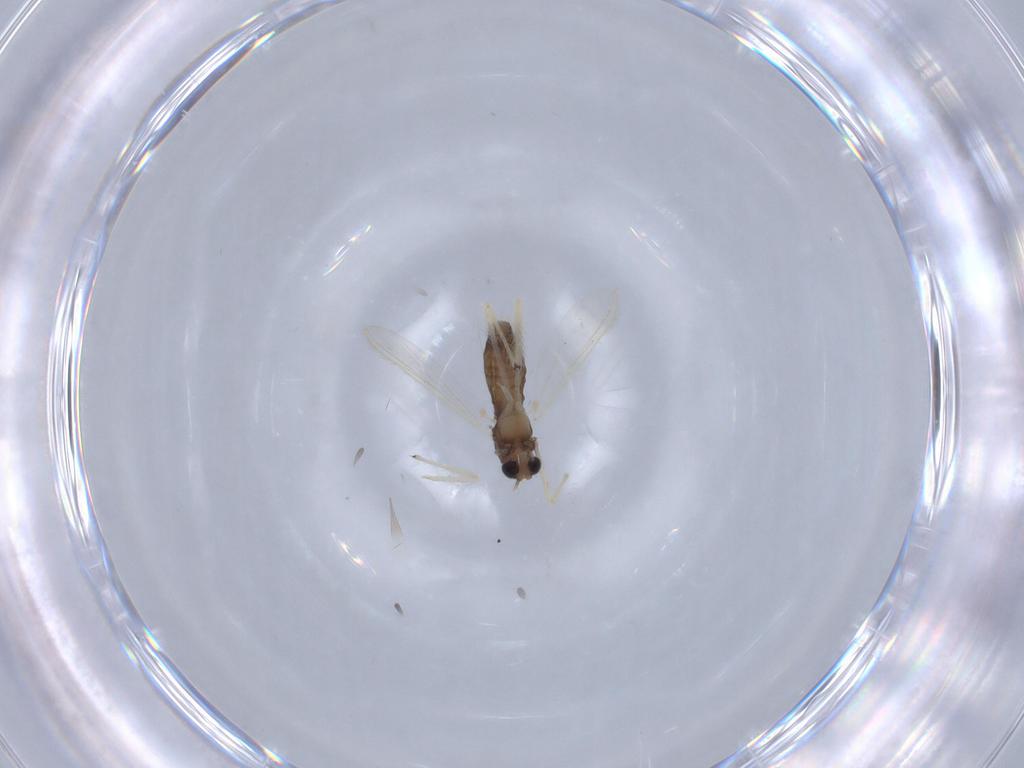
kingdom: Animalia
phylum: Arthropoda
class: Insecta
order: Diptera
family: Chironomidae
